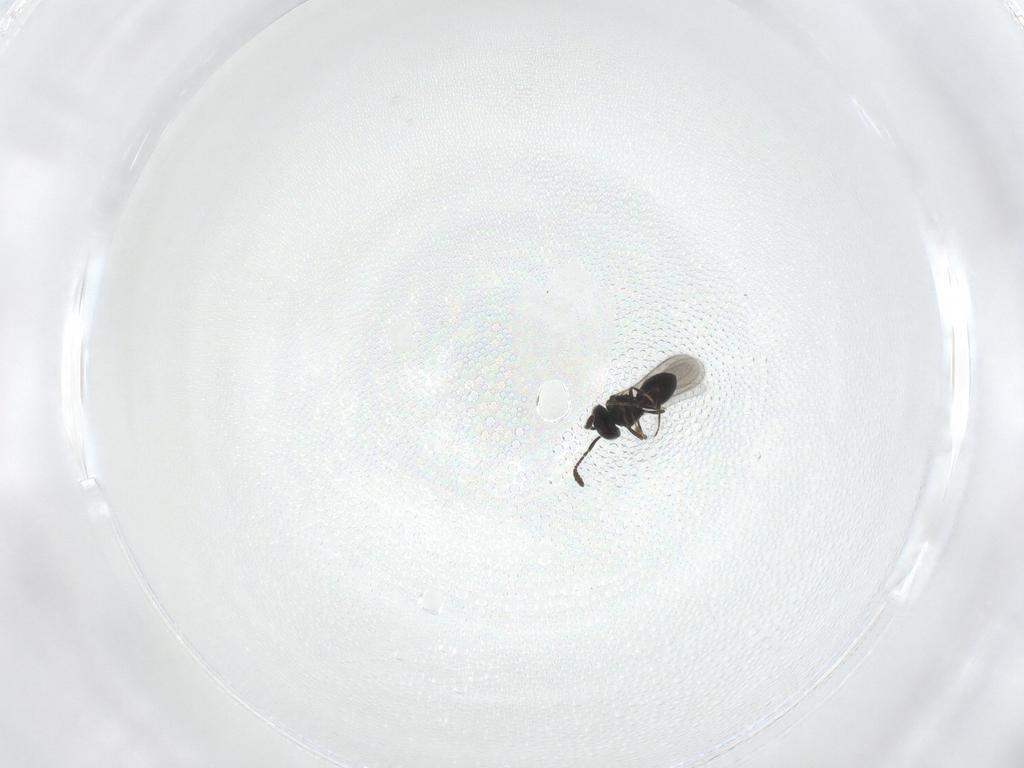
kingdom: Animalia
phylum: Arthropoda
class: Insecta
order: Hymenoptera
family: Scelionidae
